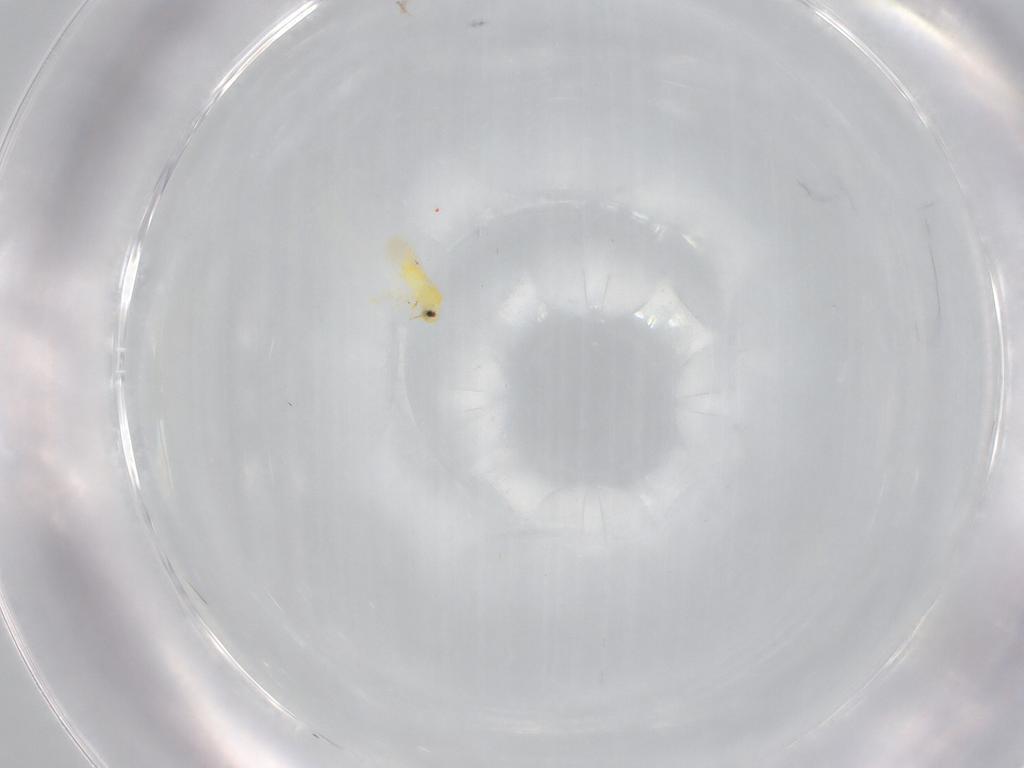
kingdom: Animalia
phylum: Arthropoda
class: Insecta
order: Hemiptera
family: Aleyrodidae
